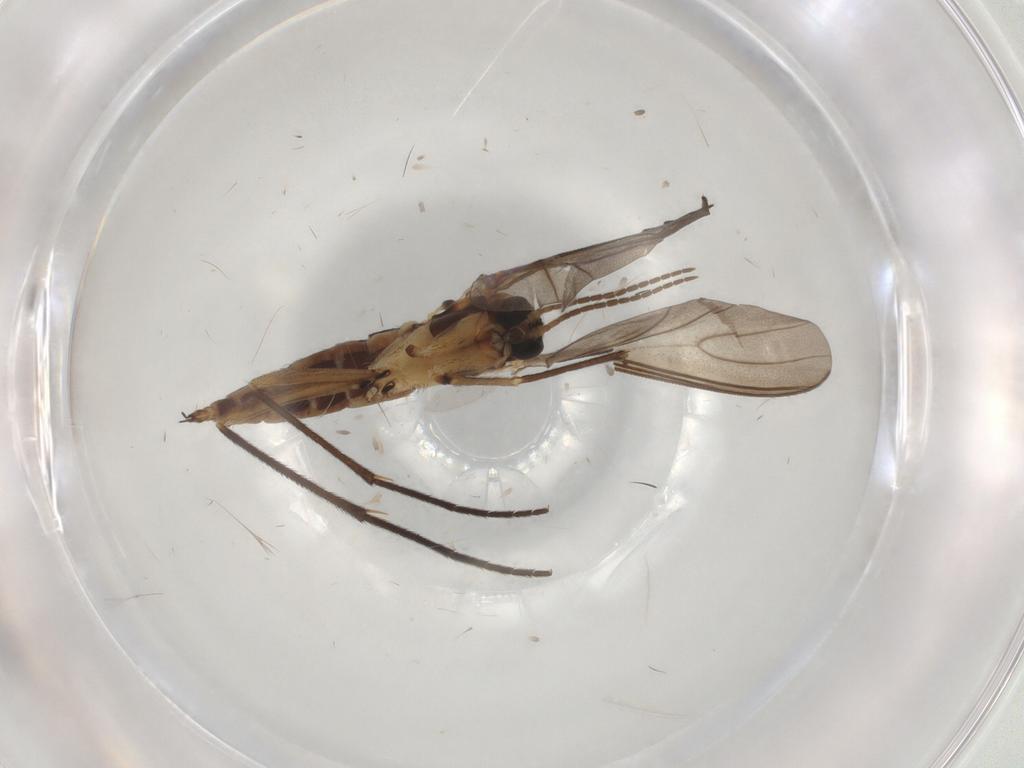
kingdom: Animalia
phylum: Arthropoda
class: Insecta
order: Diptera
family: Sciaridae
